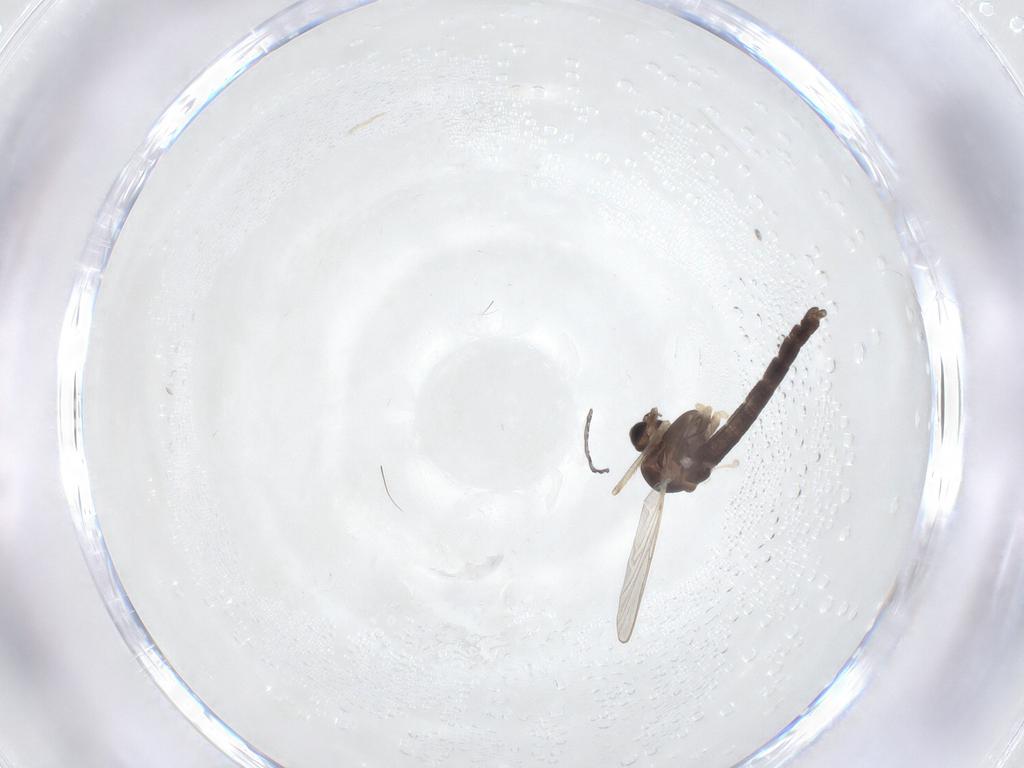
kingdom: Animalia
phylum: Arthropoda
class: Insecta
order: Diptera
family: Chironomidae
